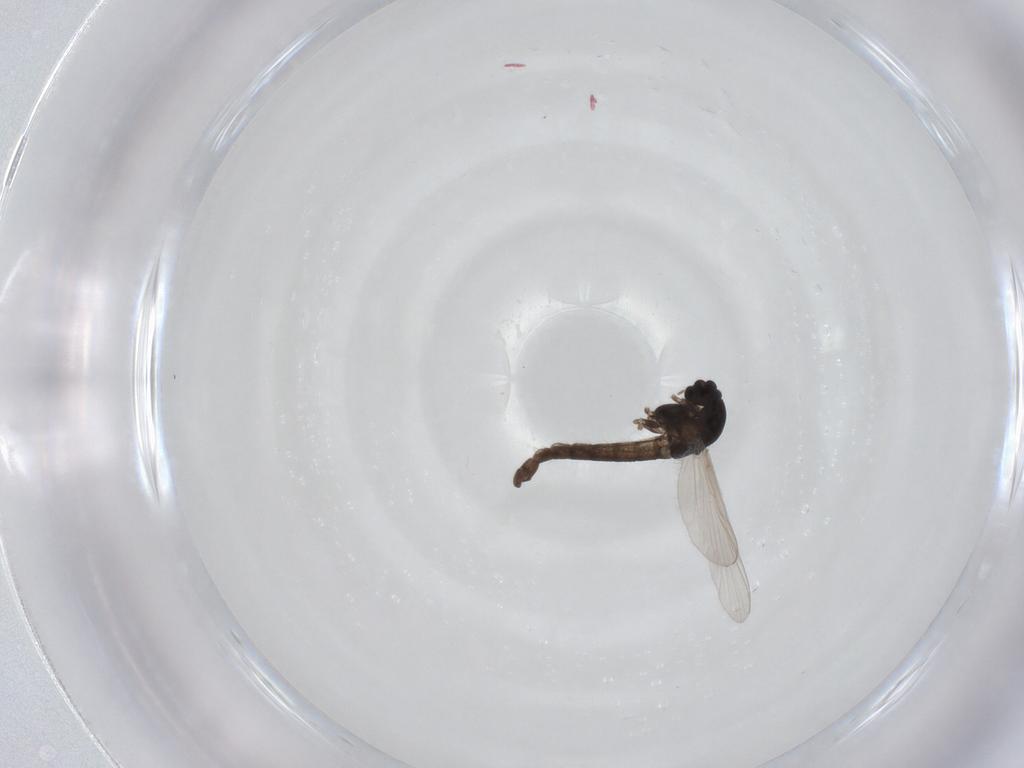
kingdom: Animalia
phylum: Arthropoda
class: Insecta
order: Diptera
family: Chironomidae
